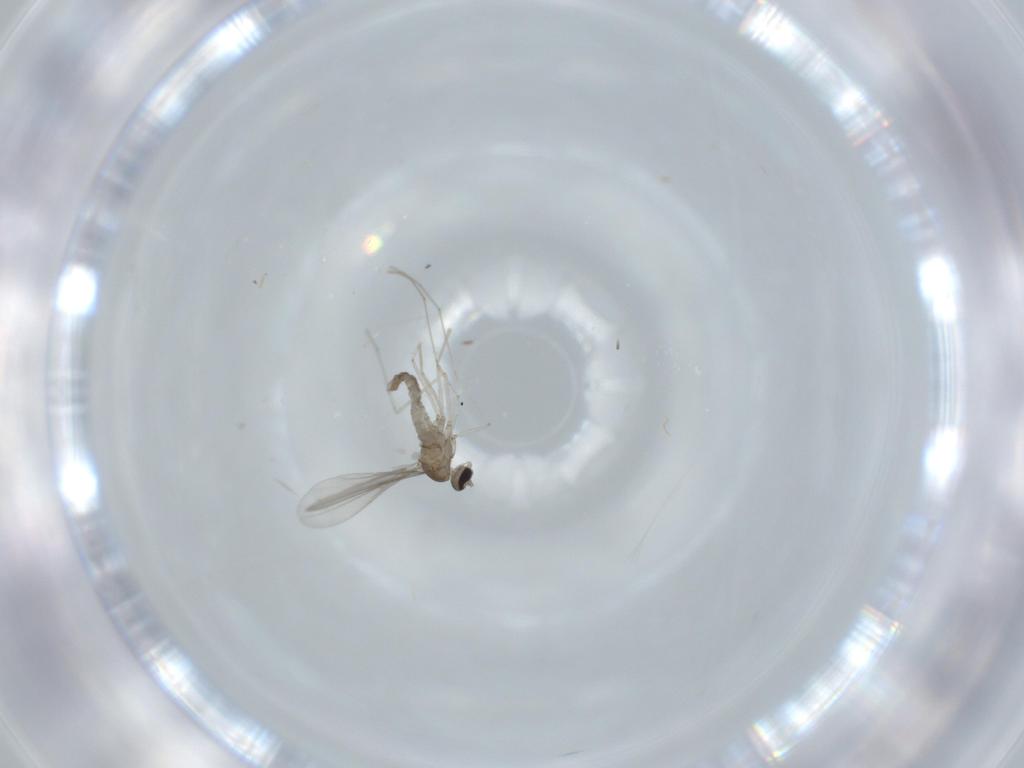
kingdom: Animalia
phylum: Arthropoda
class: Insecta
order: Diptera
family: Cecidomyiidae
